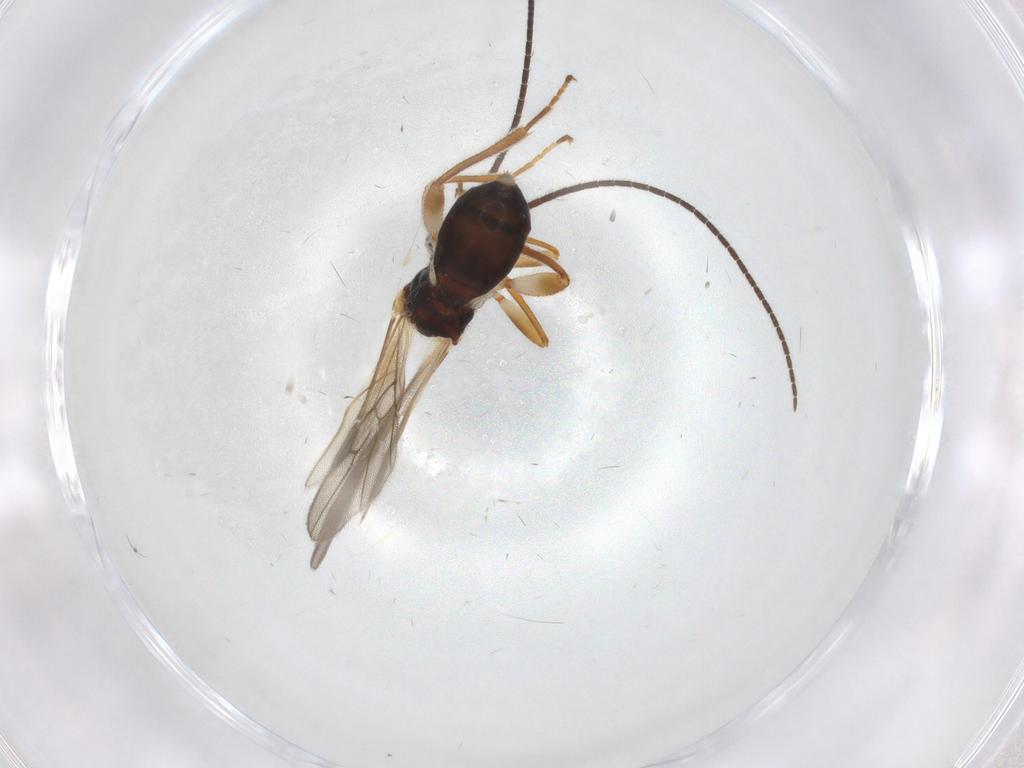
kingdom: Animalia
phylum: Arthropoda
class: Insecta
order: Hymenoptera
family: Braconidae
